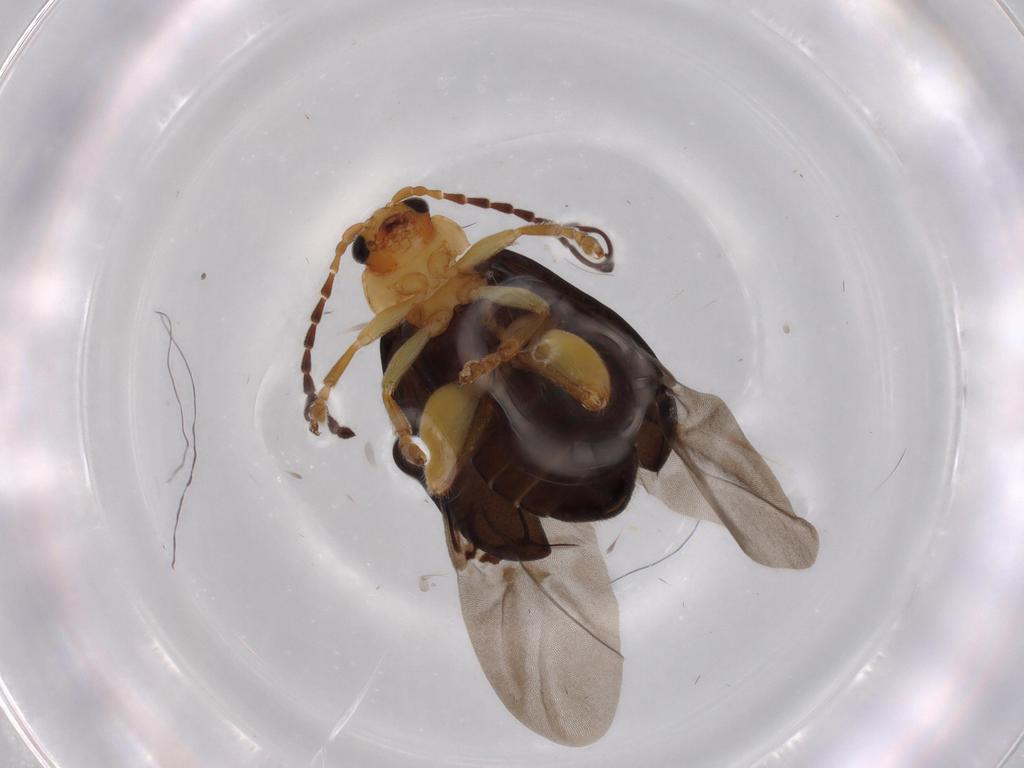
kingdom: Animalia
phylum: Arthropoda
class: Insecta
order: Coleoptera
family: Chrysomelidae
